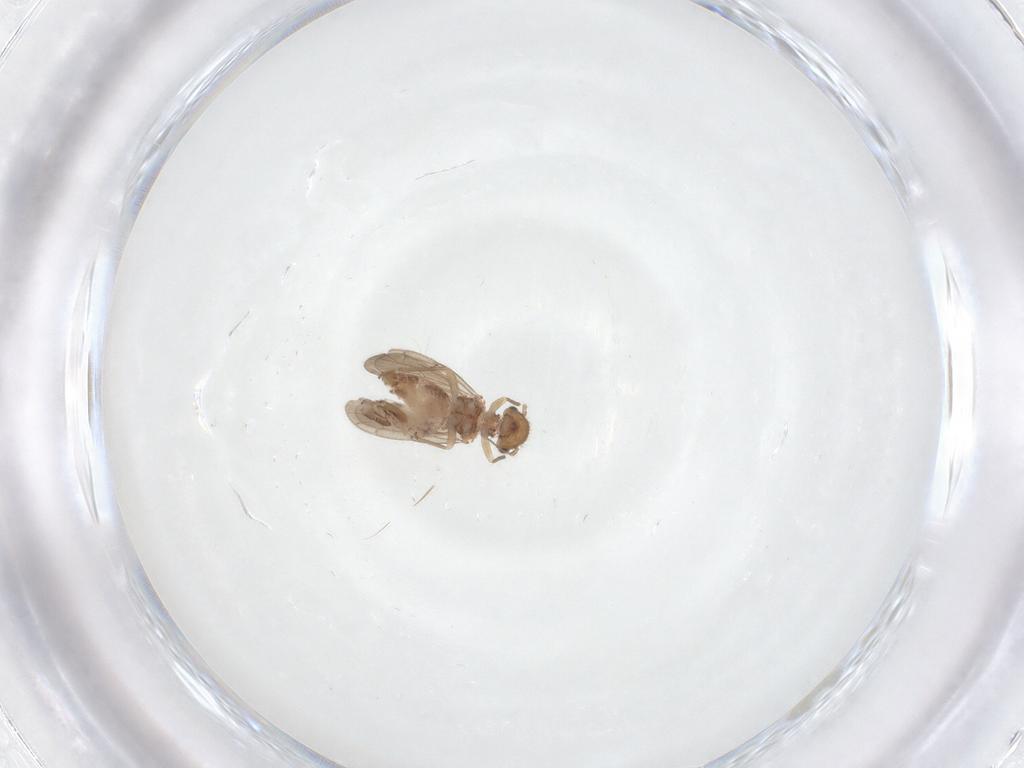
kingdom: Animalia
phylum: Arthropoda
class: Insecta
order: Psocodea
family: Ectopsocidae
